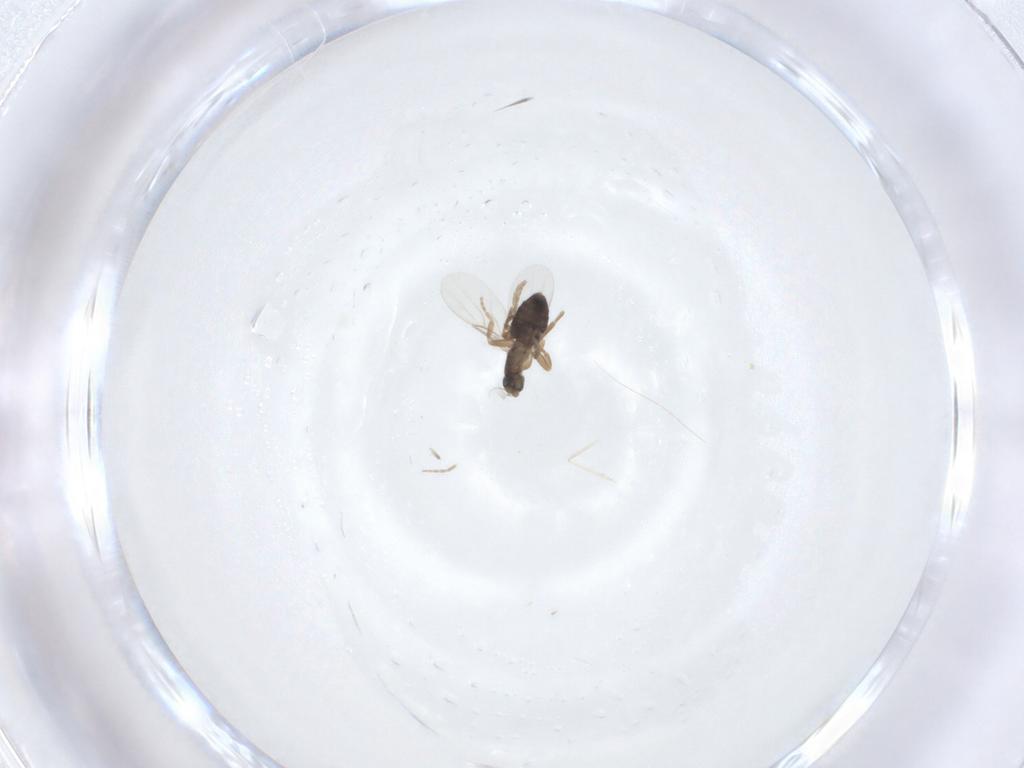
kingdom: Animalia
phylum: Arthropoda
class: Insecta
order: Diptera
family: Cecidomyiidae
